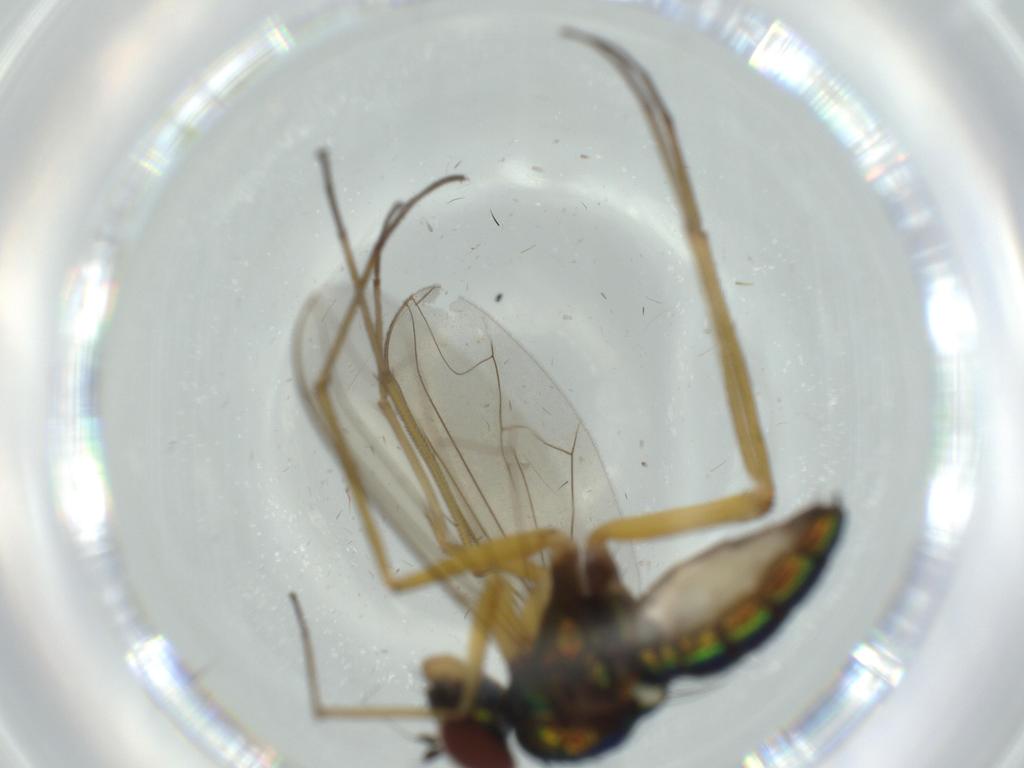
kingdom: Animalia
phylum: Arthropoda
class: Insecta
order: Diptera
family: Dolichopodidae
